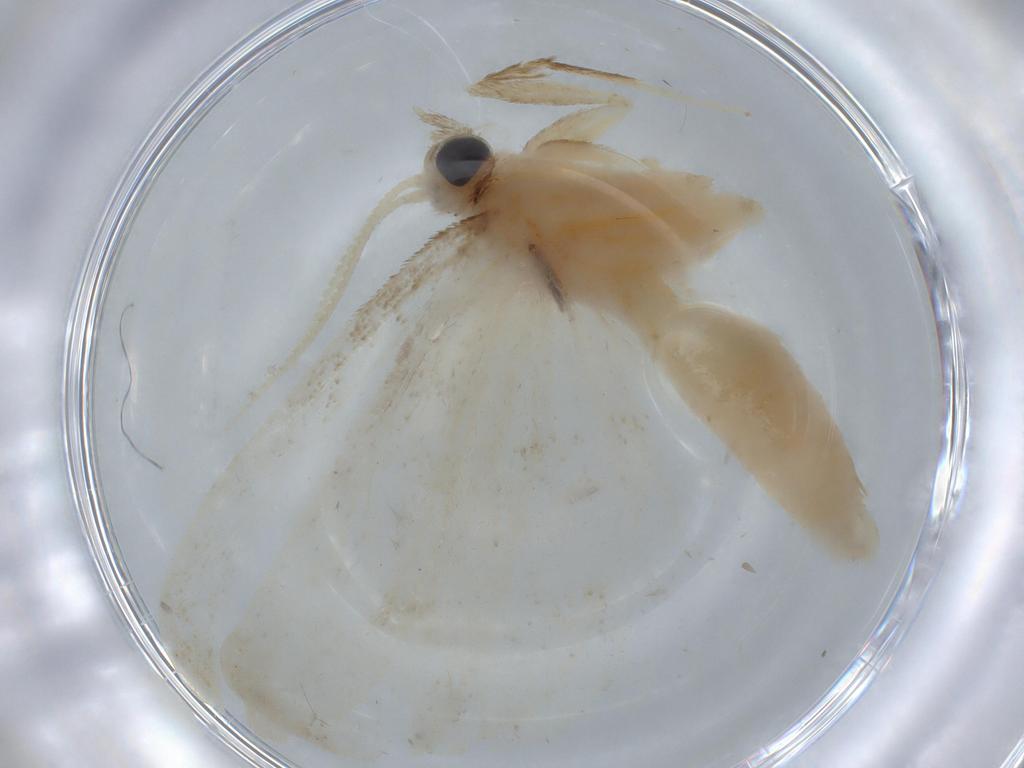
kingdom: Animalia
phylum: Arthropoda
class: Insecta
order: Lepidoptera
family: Crambidae
